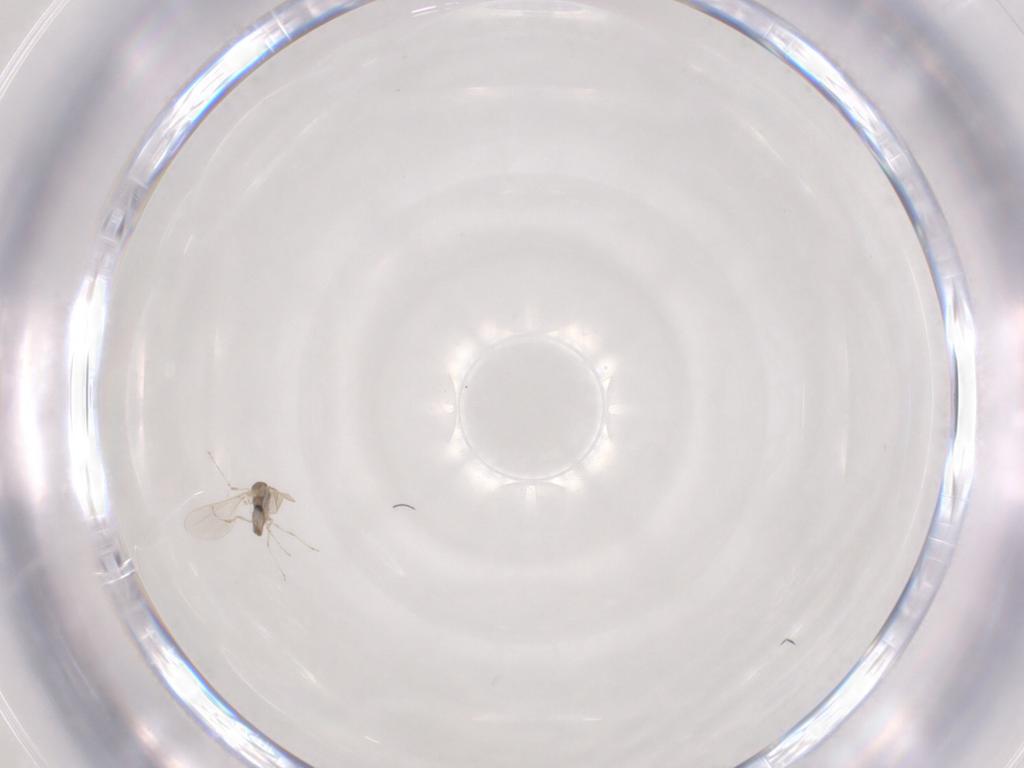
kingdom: Animalia
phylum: Arthropoda
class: Insecta
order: Diptera
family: Cecidomyiidae
